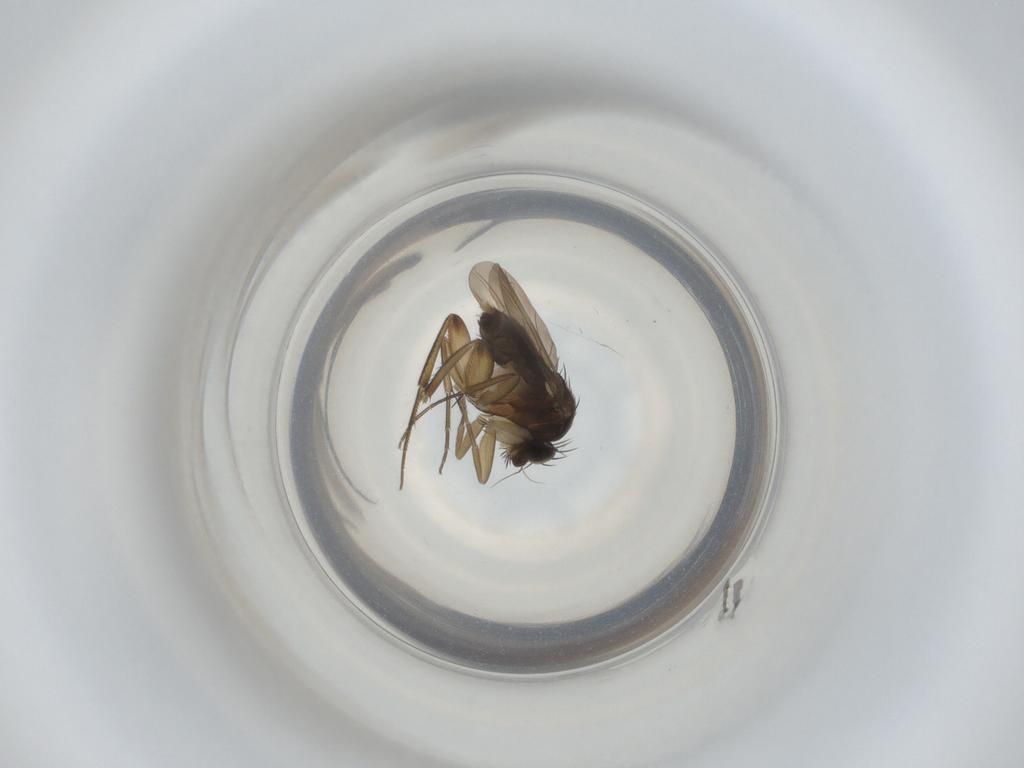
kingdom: Animalia
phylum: Arthropoda
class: Insecta
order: Diptera
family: Phoridae
